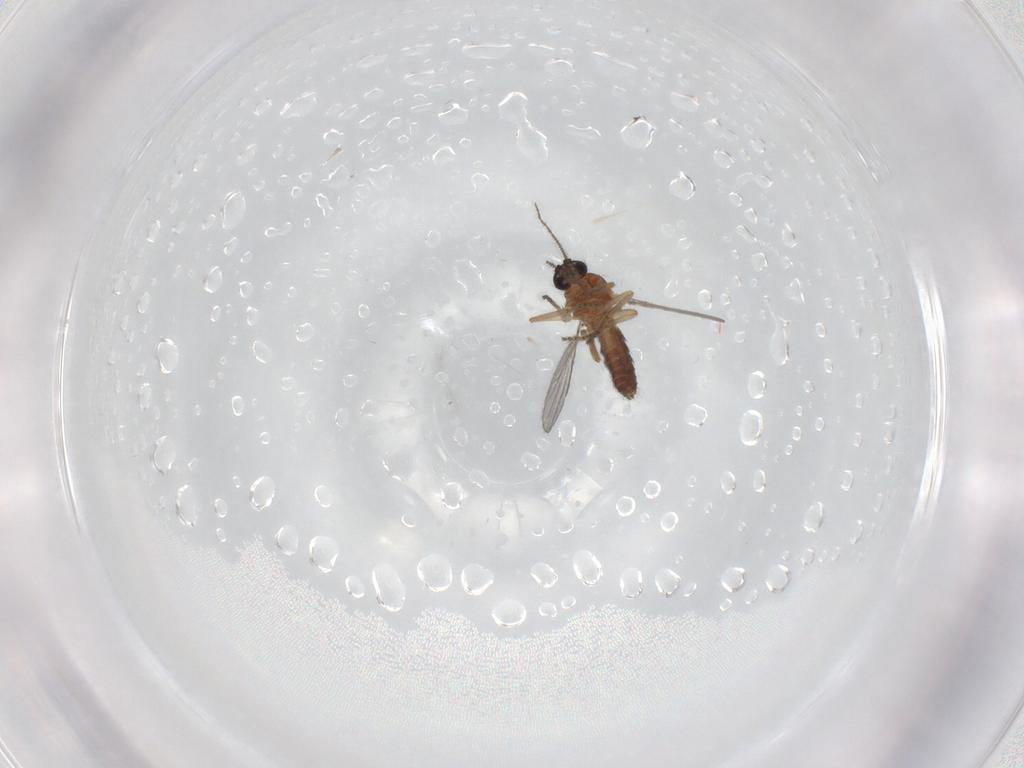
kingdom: Animalia
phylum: Arthropoda
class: Insecta
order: Diptera
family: Ceratopogonidae
